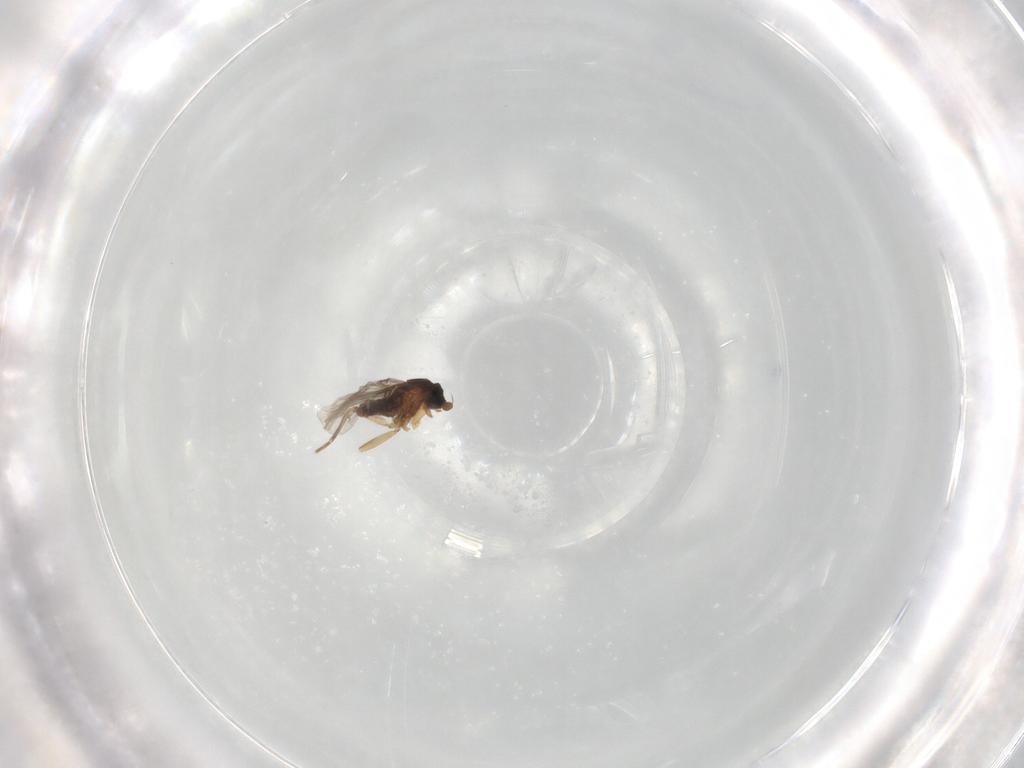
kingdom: Animalia
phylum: Arthropoda
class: Insecta
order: Diptera
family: Phoridae
